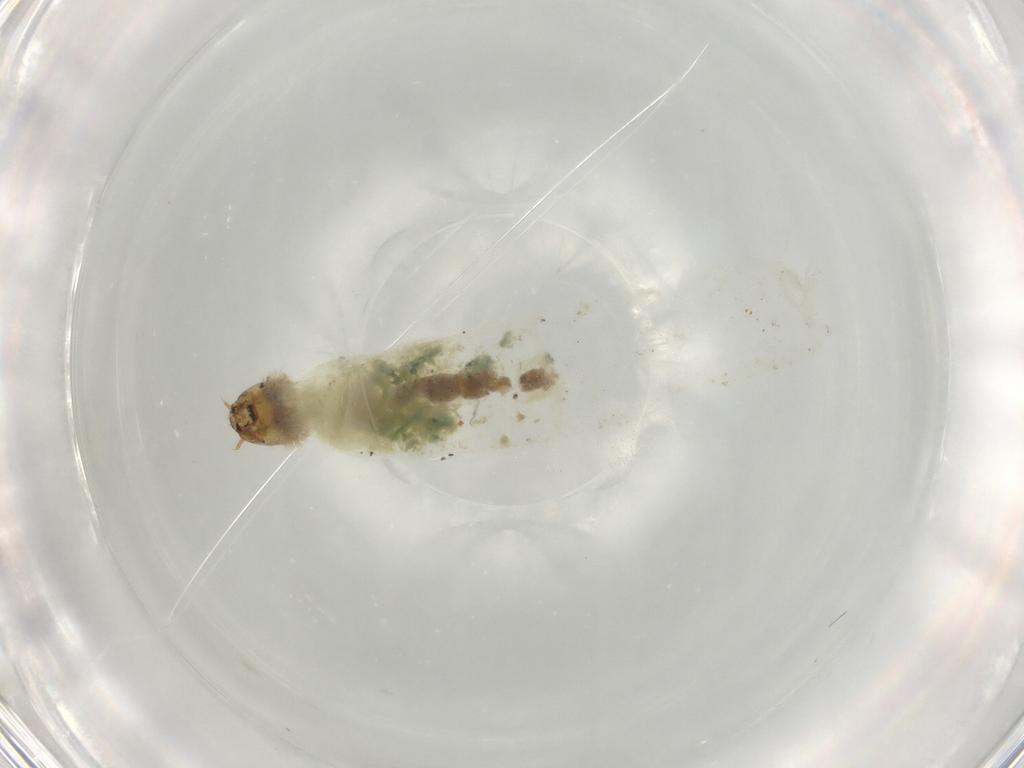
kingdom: Animalia
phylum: Arthropoda
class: Insecta
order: Diptera
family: Chironomidae
